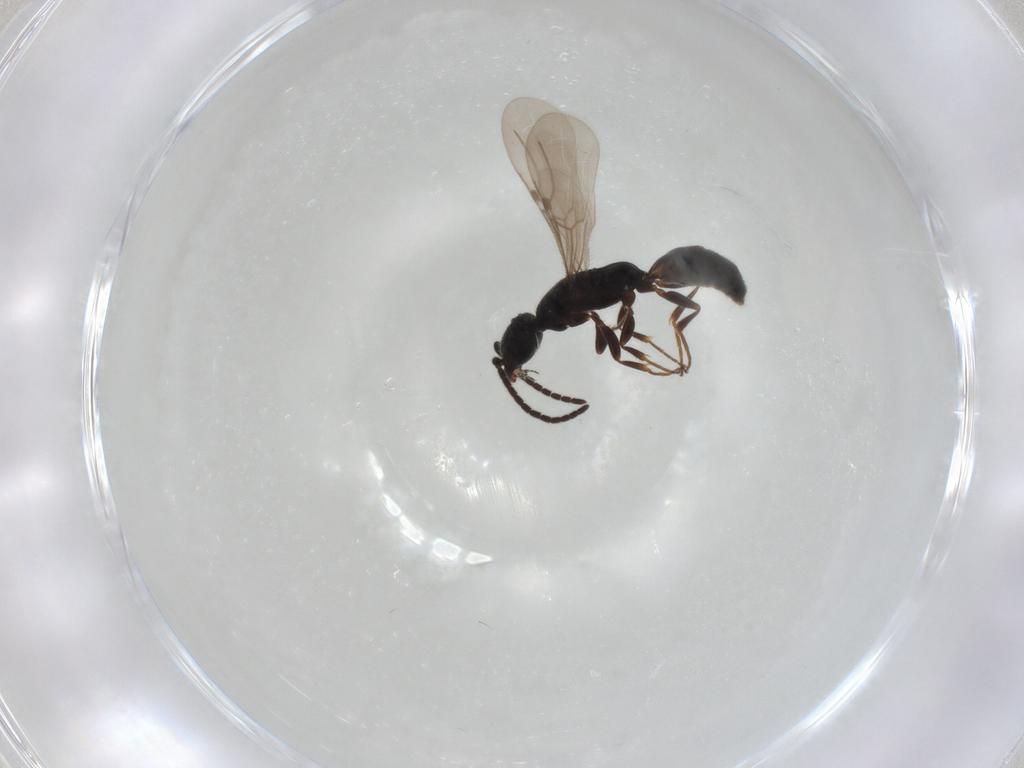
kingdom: Animalia
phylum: Arthropoda
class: Insecta
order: Hymenoptera
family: Bethylidae
